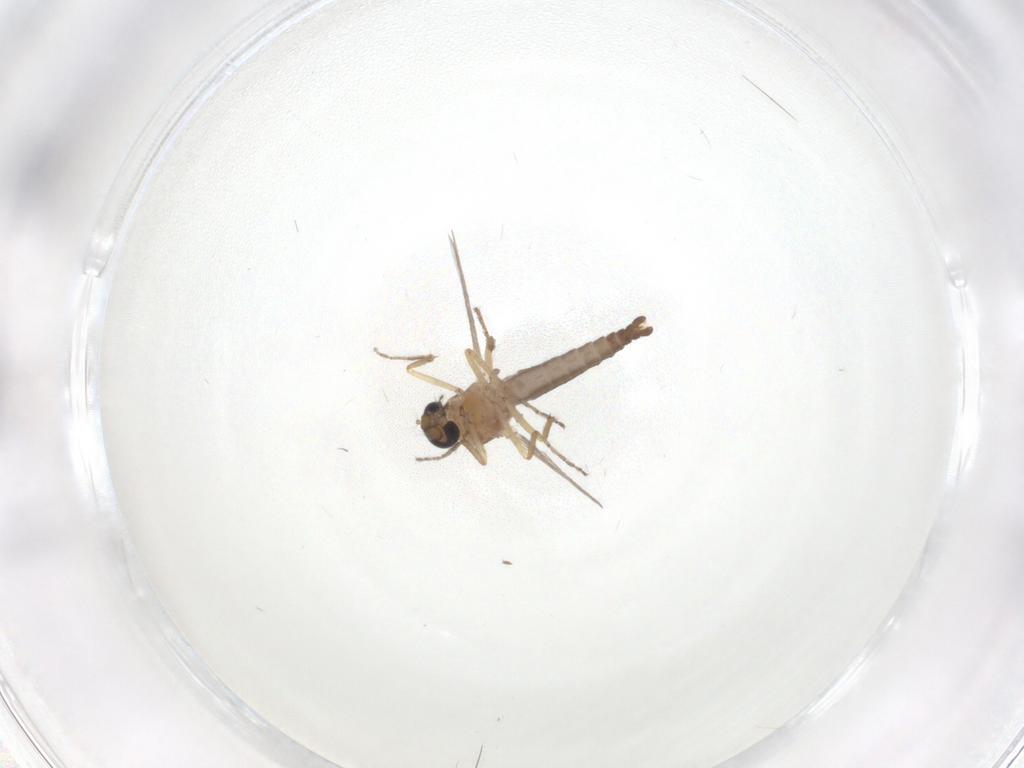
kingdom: Animalia
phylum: Arthropoda
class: Insecta
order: Diptera
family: Ceratopogonidae
